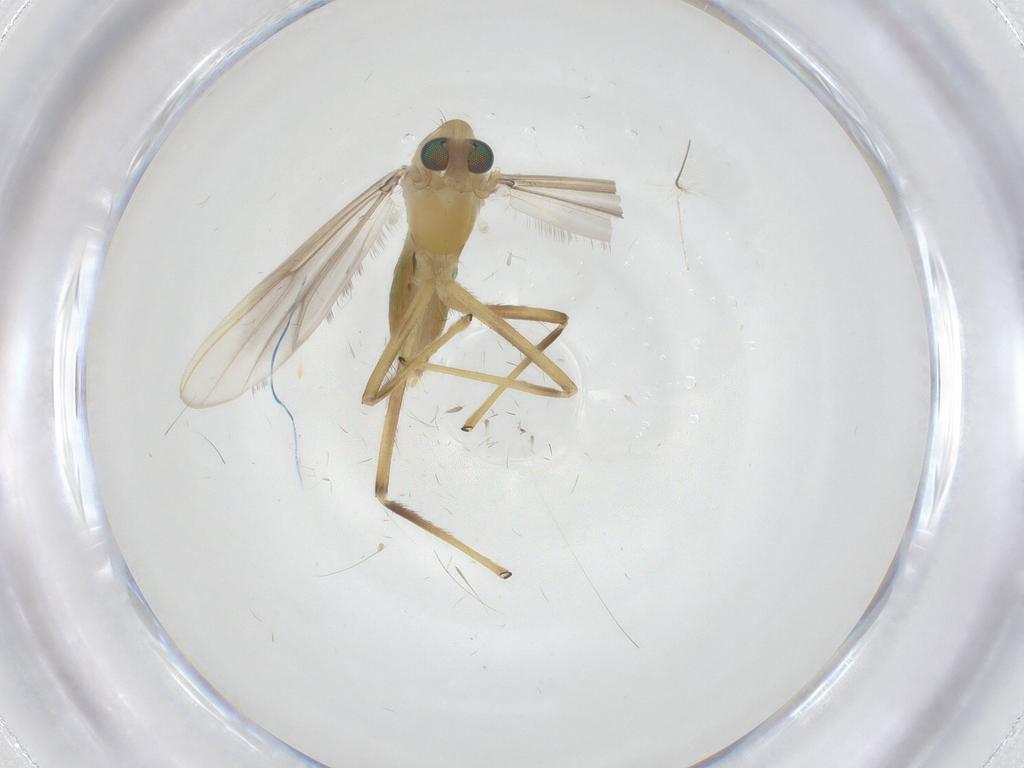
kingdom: Animalia
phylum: Arthropoda
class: Insecta
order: Diptera
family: Chironomidae
